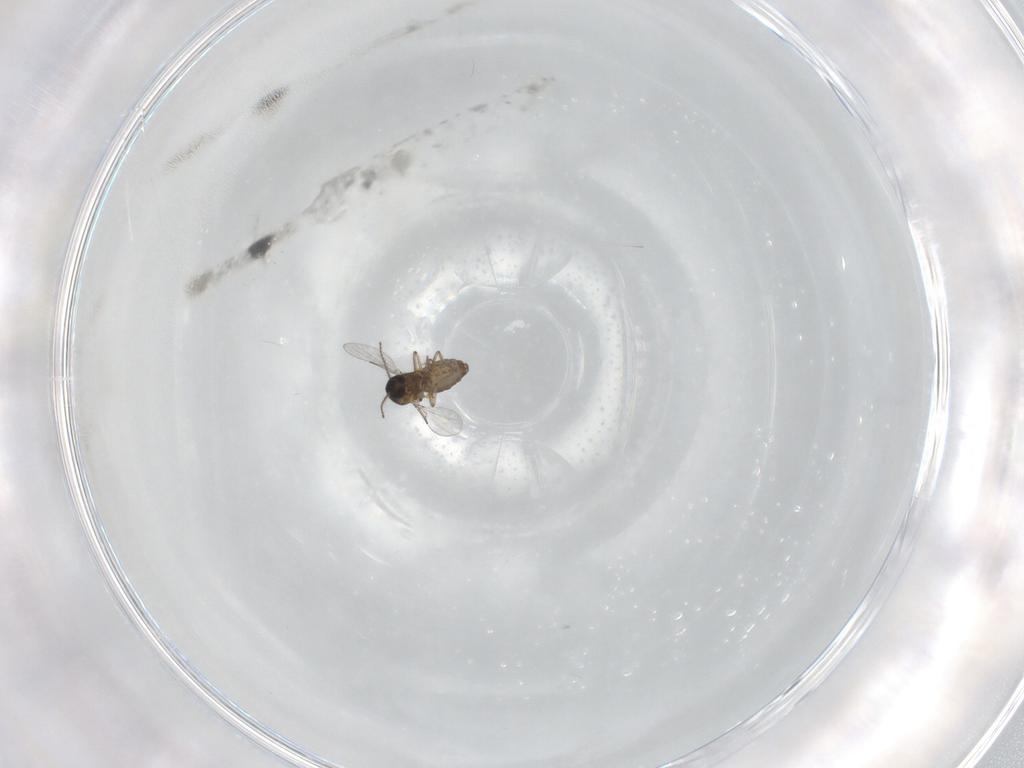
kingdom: Animalia
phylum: Arthropoda
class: Insecta
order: Diptera
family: Ceratopogonidae
